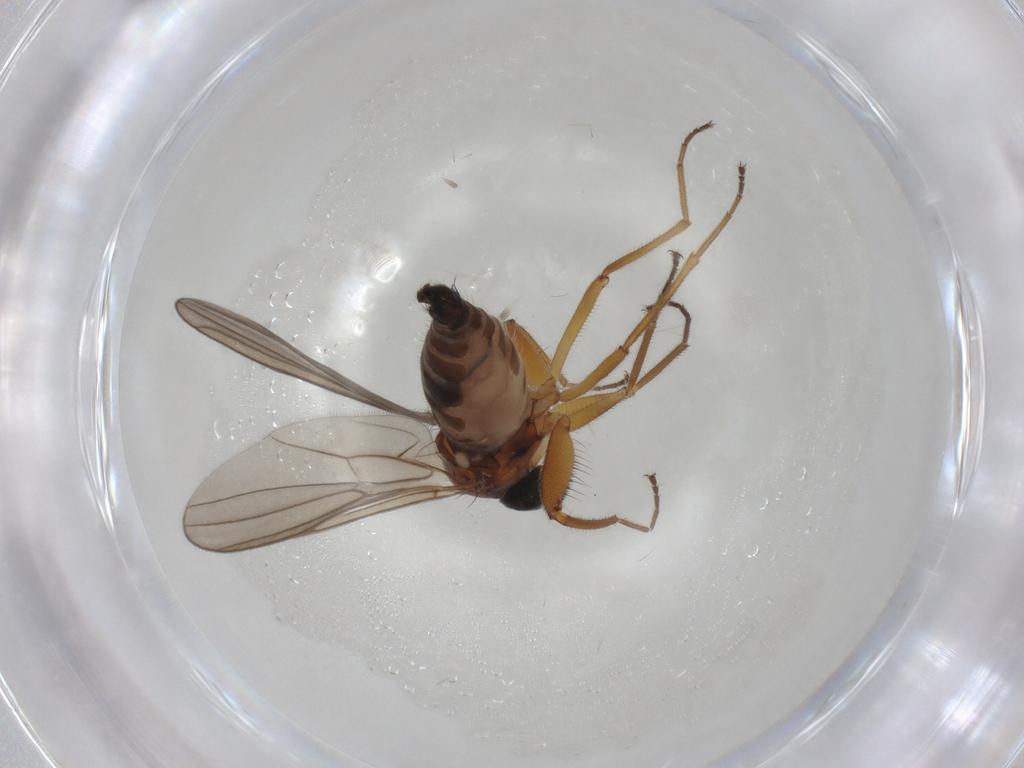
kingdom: Animalia
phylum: Arthropoda
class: Insecta
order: Diptera
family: Hybotidae
